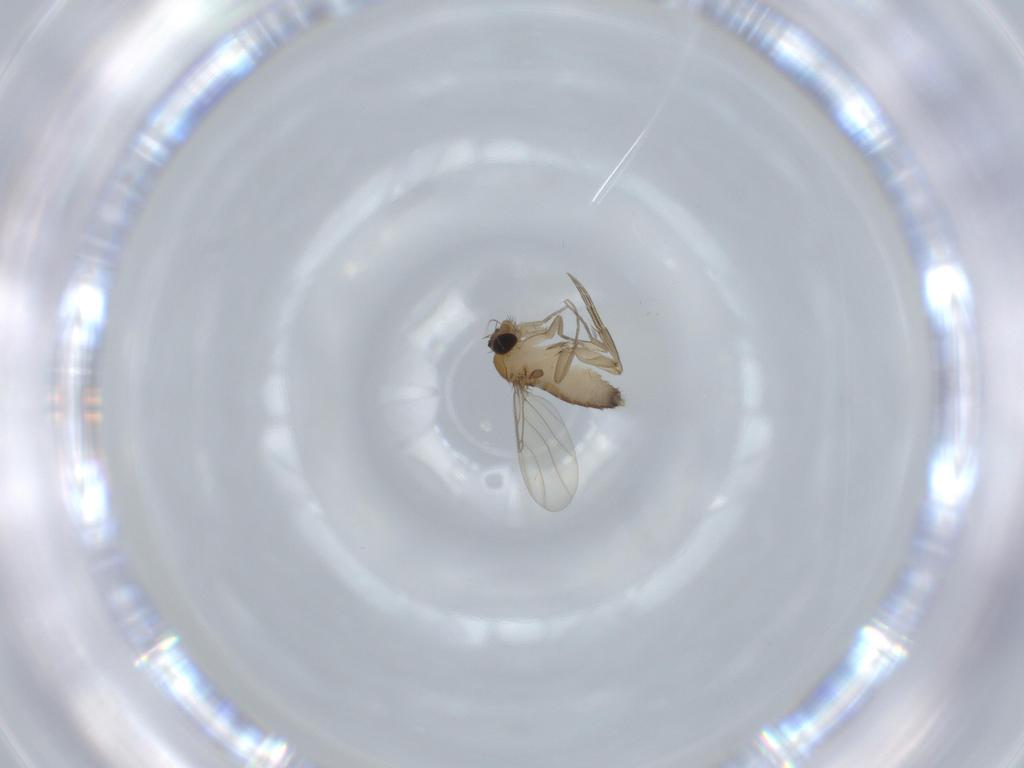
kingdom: Animalia
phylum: Arthropoda
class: Insecta
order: Diptera
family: Phoridae
